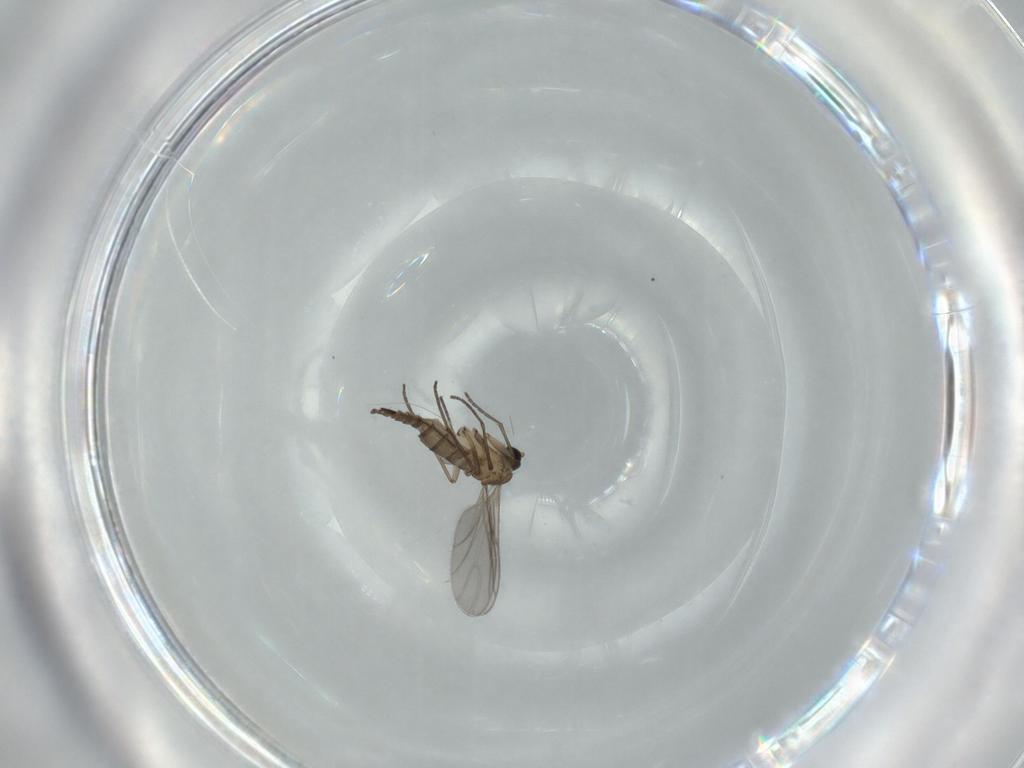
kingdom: Animalia
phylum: Arthropoda
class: Insecta
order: Diptera
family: Sciaridae
